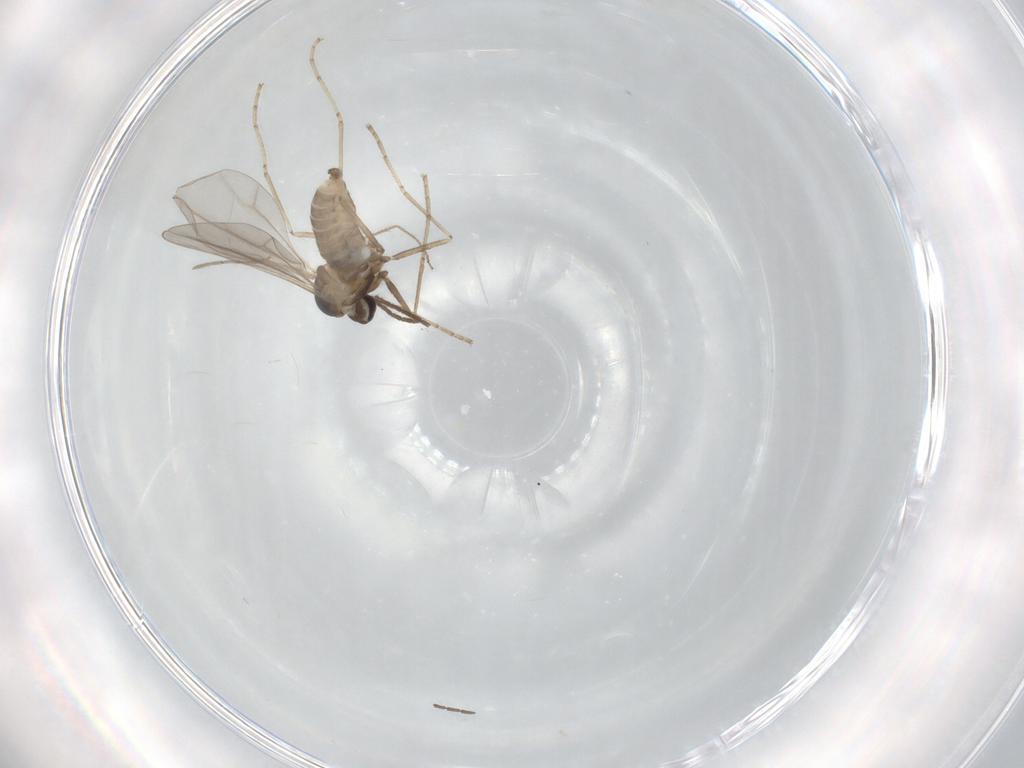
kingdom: Animalia
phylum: Arthropoda
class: Insecta
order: Diptera
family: Cecidomyiidae
